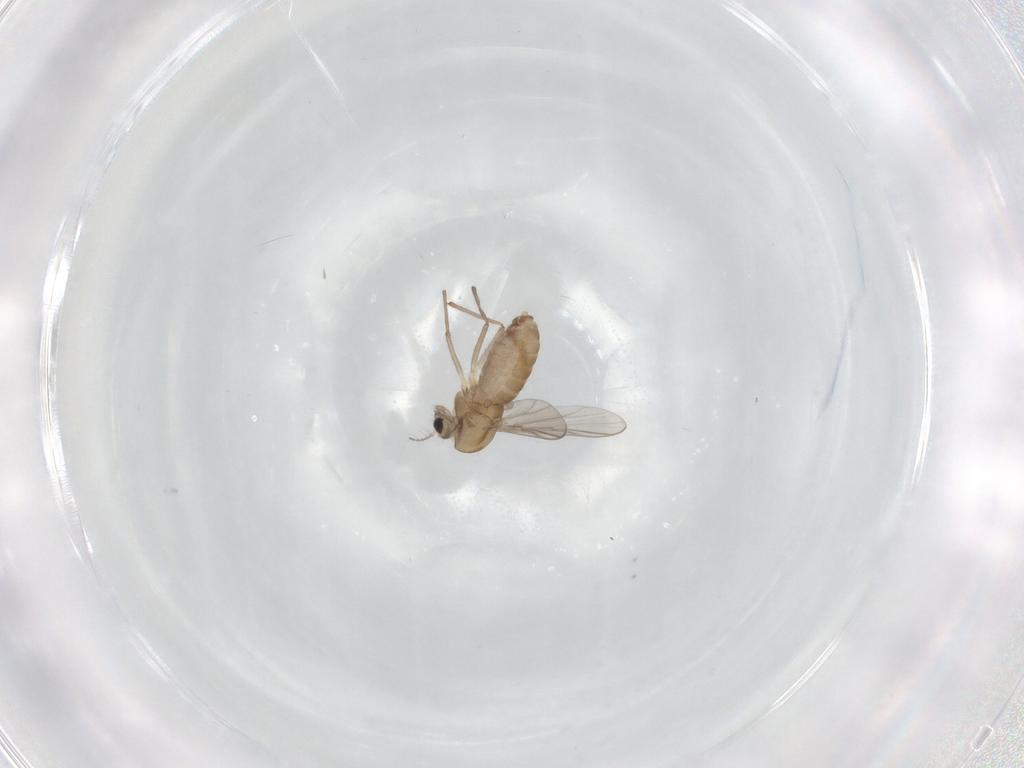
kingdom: Animalia
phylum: Arthropoda
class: Insecta
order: Diptera
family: Chironomidae
